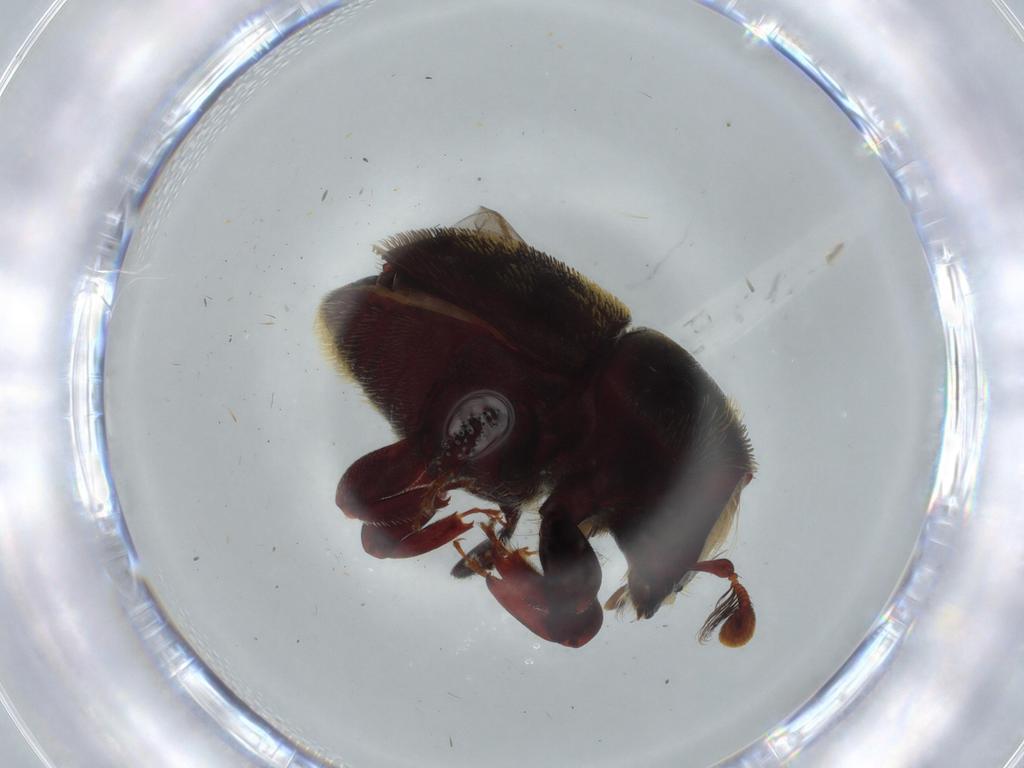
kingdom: Animalia
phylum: Arthropoda
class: Insecta
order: Coleoptera
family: Curculionidae
